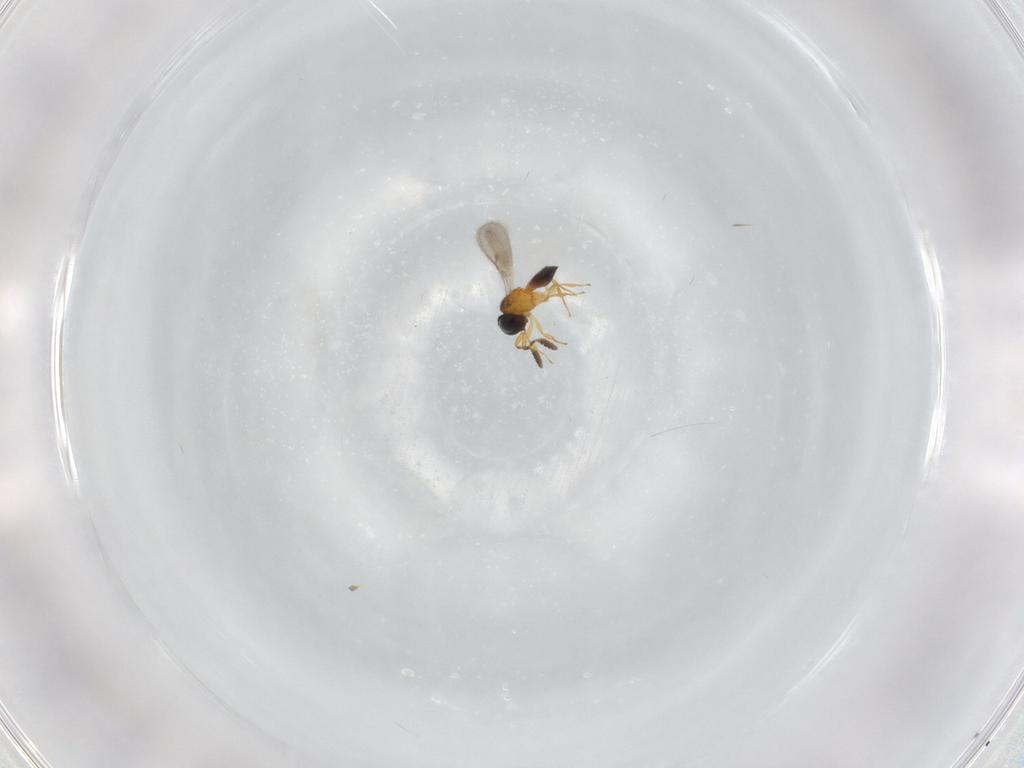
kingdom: Animalia
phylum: Arthropoda
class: Insecta
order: Hymenoptera
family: Scelionidae
